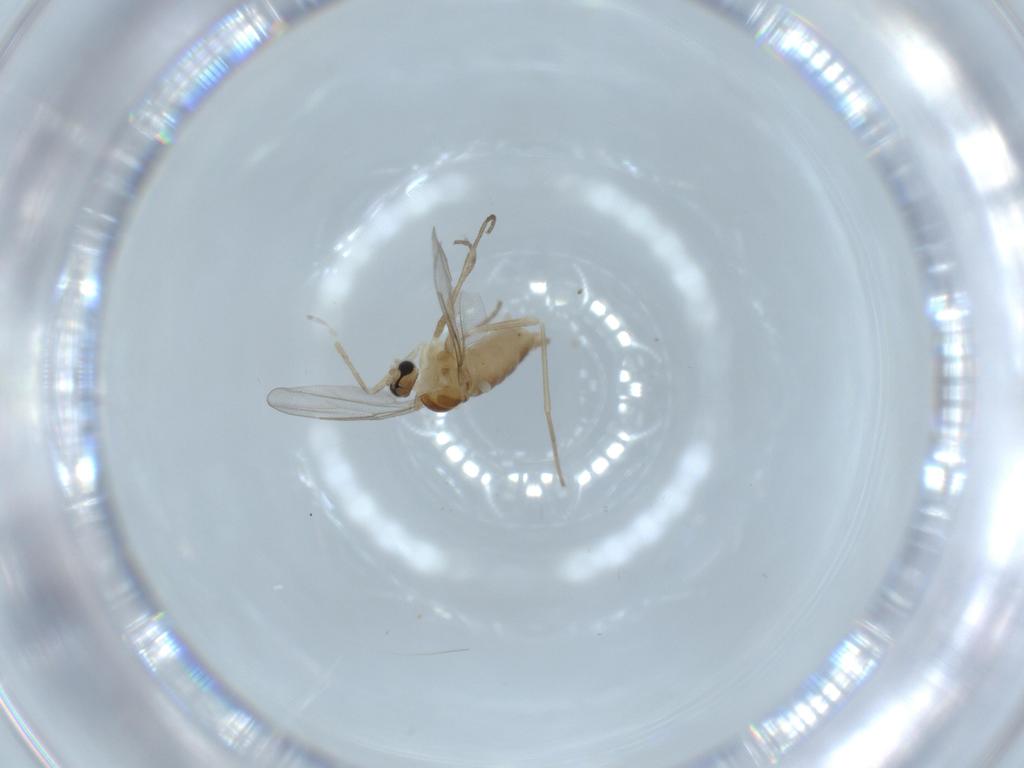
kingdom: Animalia
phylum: Arthropoda
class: Insecta
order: Diptera
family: Cecidomyiidae
